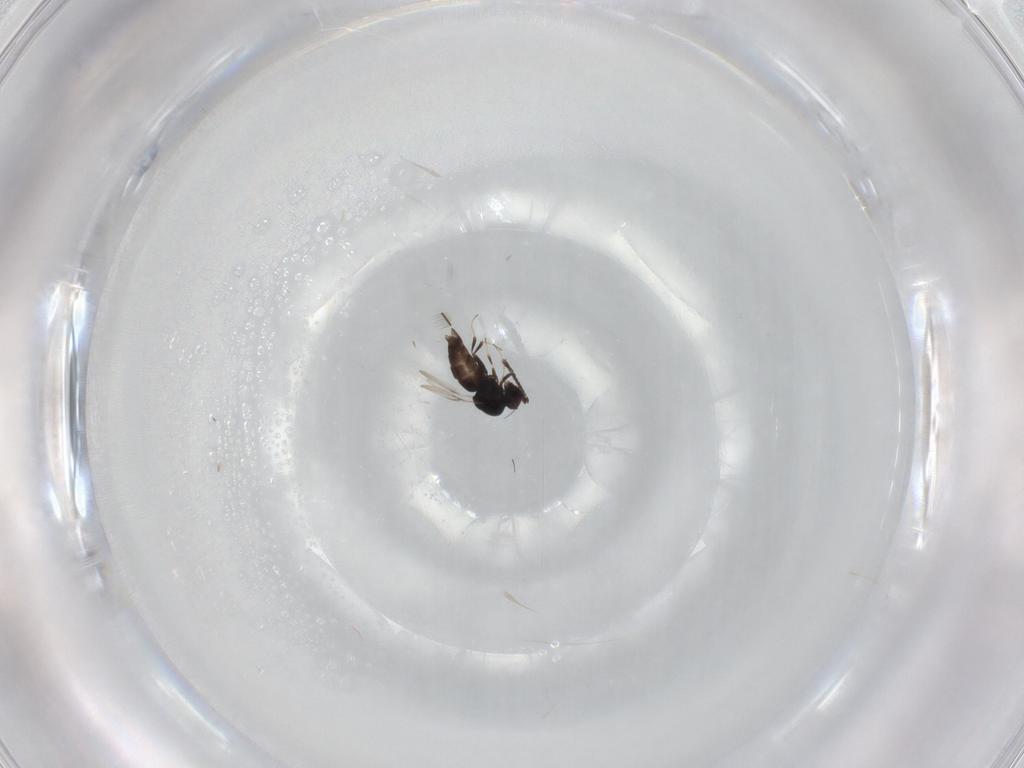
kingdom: Animalia
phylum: Arthropoda
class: Insecta
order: Hymenoptera
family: Ceraphronidae
